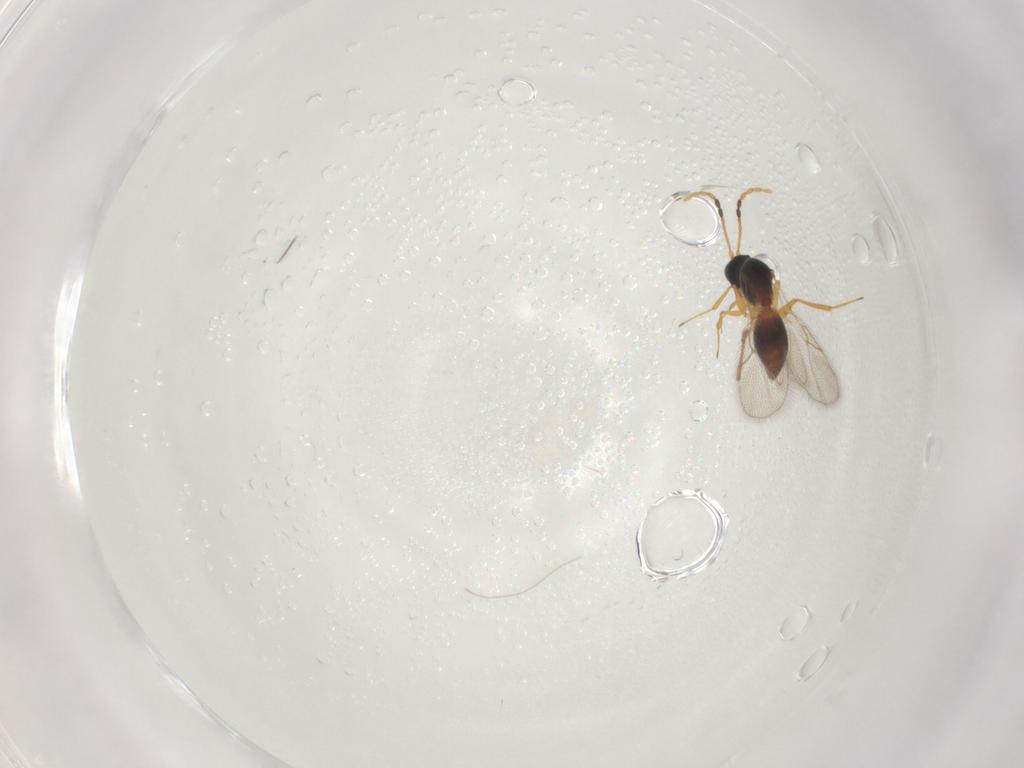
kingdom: Animalia
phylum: Arthropoda
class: Insecta
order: Hymenoptera
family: Figitidae
